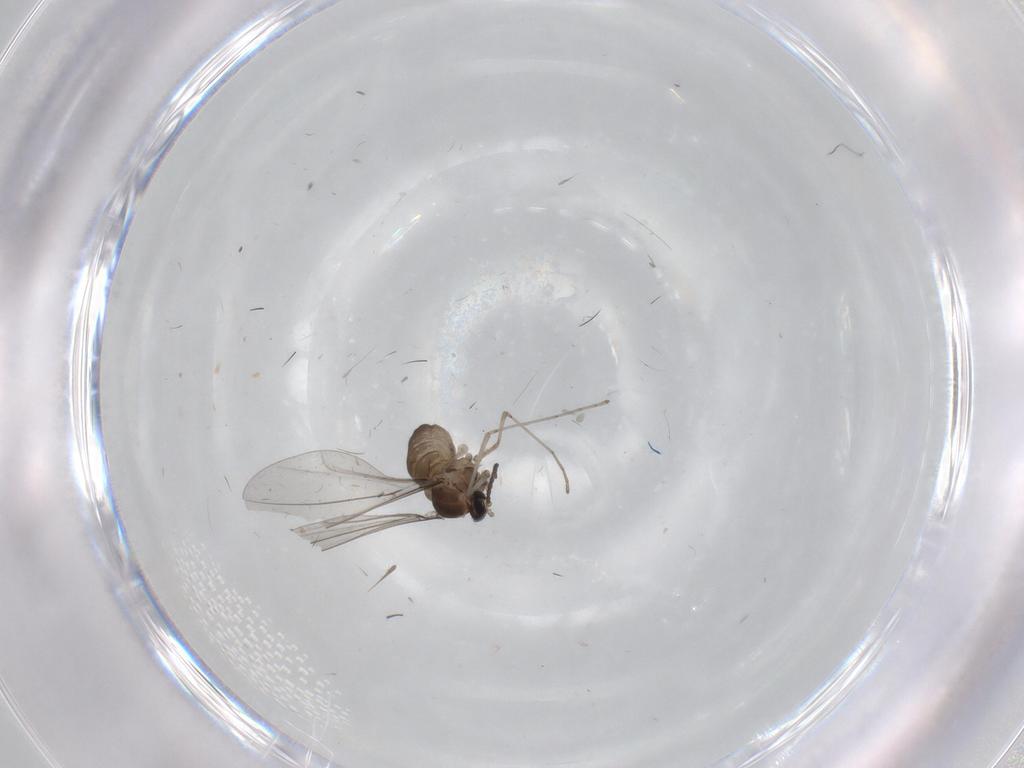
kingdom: Animalia
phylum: Arthropoda
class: Insecta
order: Diptera
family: Cecidomyiidae
